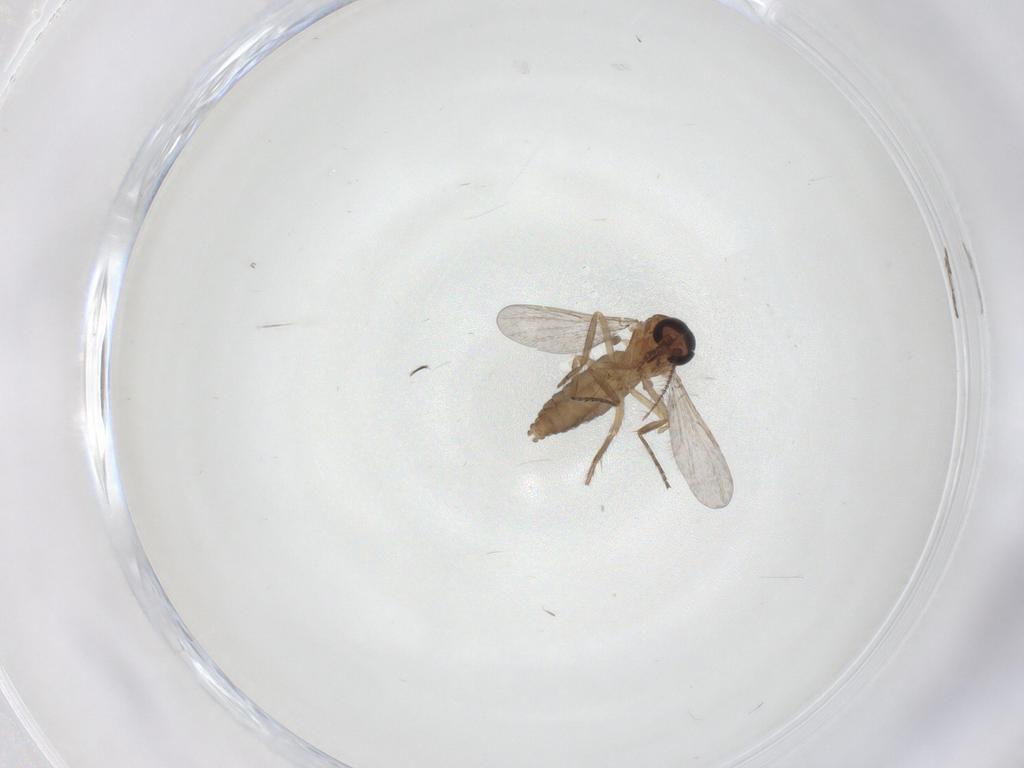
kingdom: Animalia
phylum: Arthropoda
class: Insecta
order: Diptera
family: Ceratopogonidae
